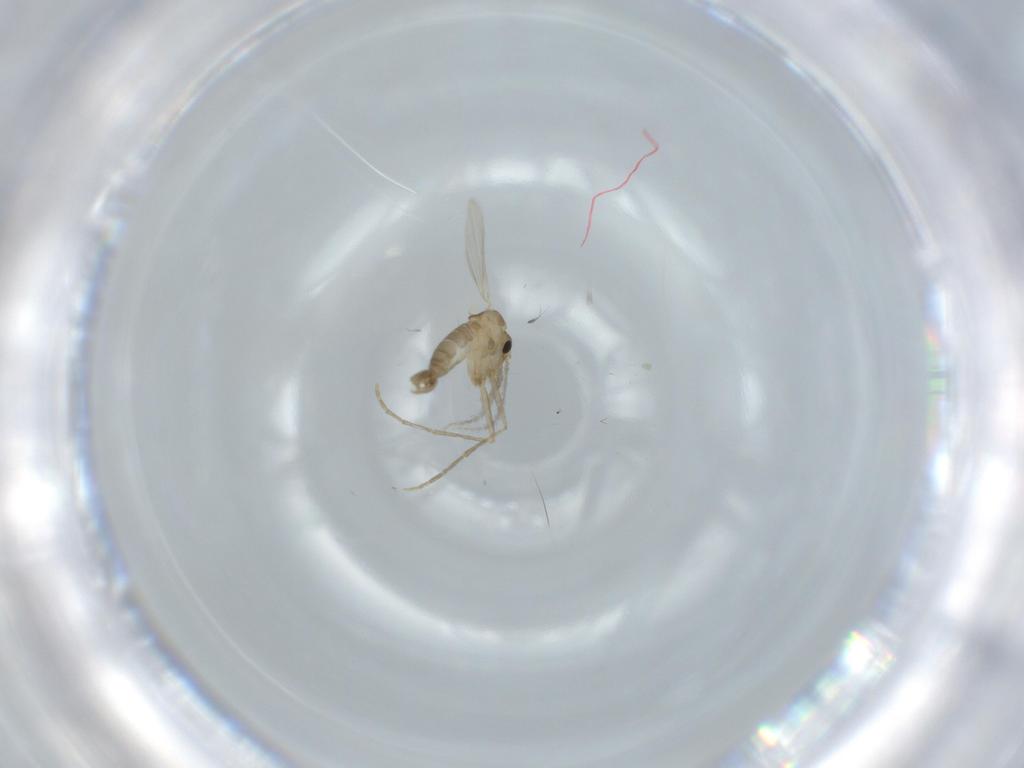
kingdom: Animalia
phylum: Arthropoda
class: Insecta
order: Diptera
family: Psychodidae
